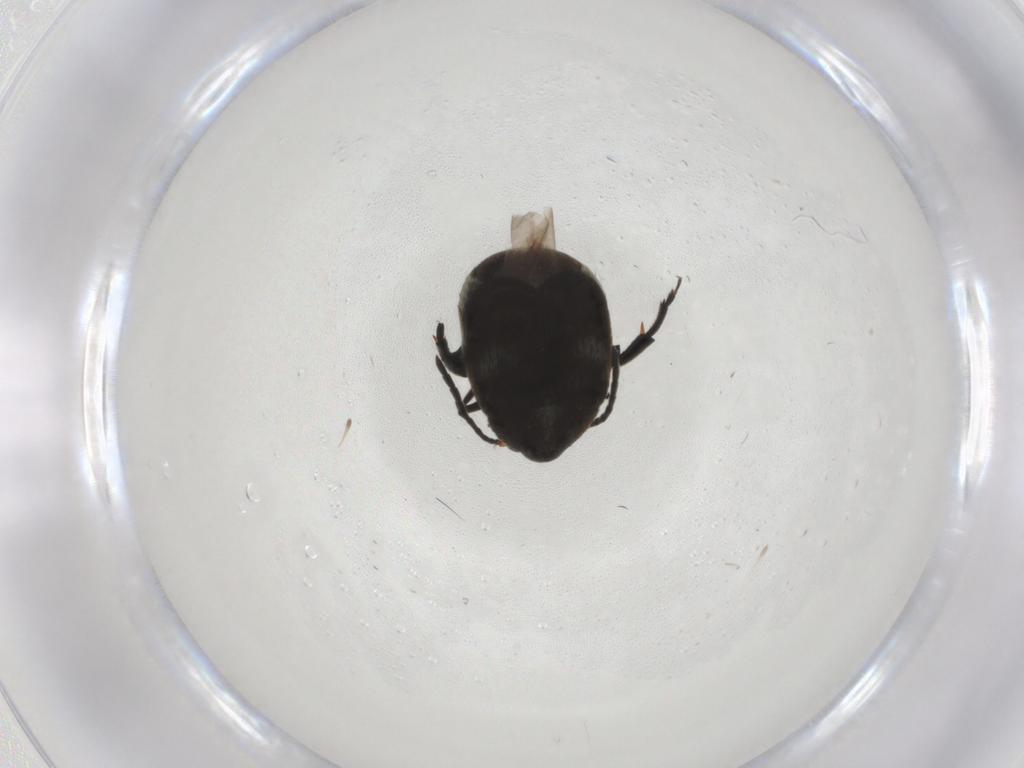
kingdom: Animalia
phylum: Arthropoda
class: Insecta
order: Coleoptera
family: Chrysomelidae
